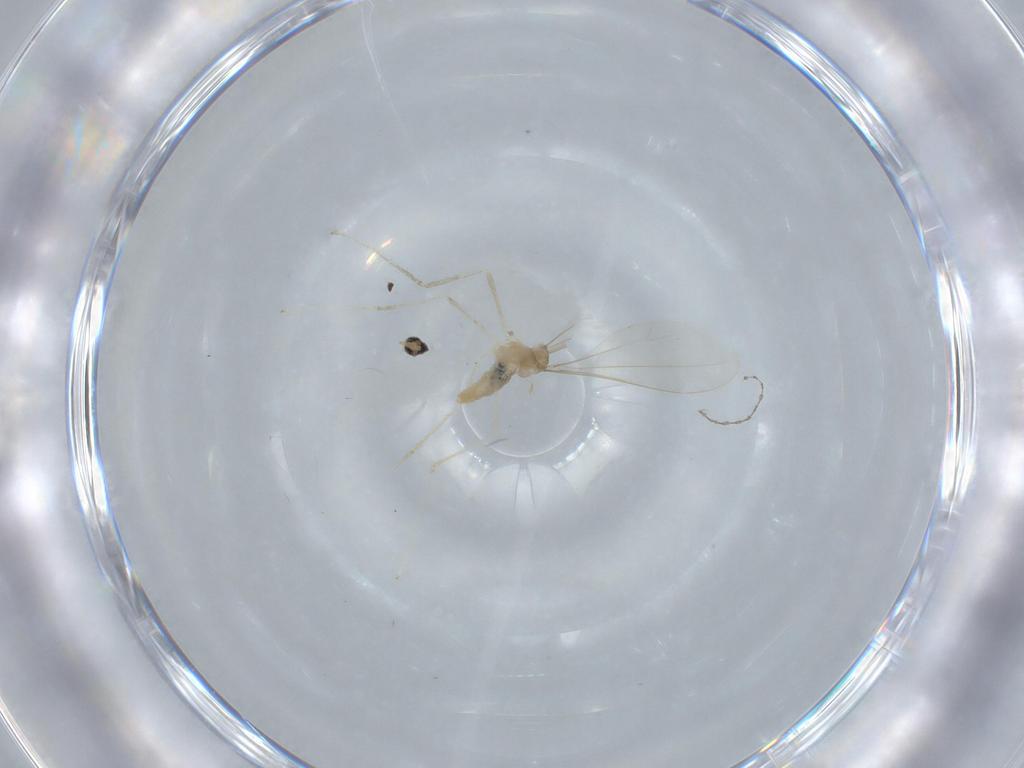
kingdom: Animalia
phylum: Arthropoda
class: Insecta
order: Diptera
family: Cecidomyiidae
